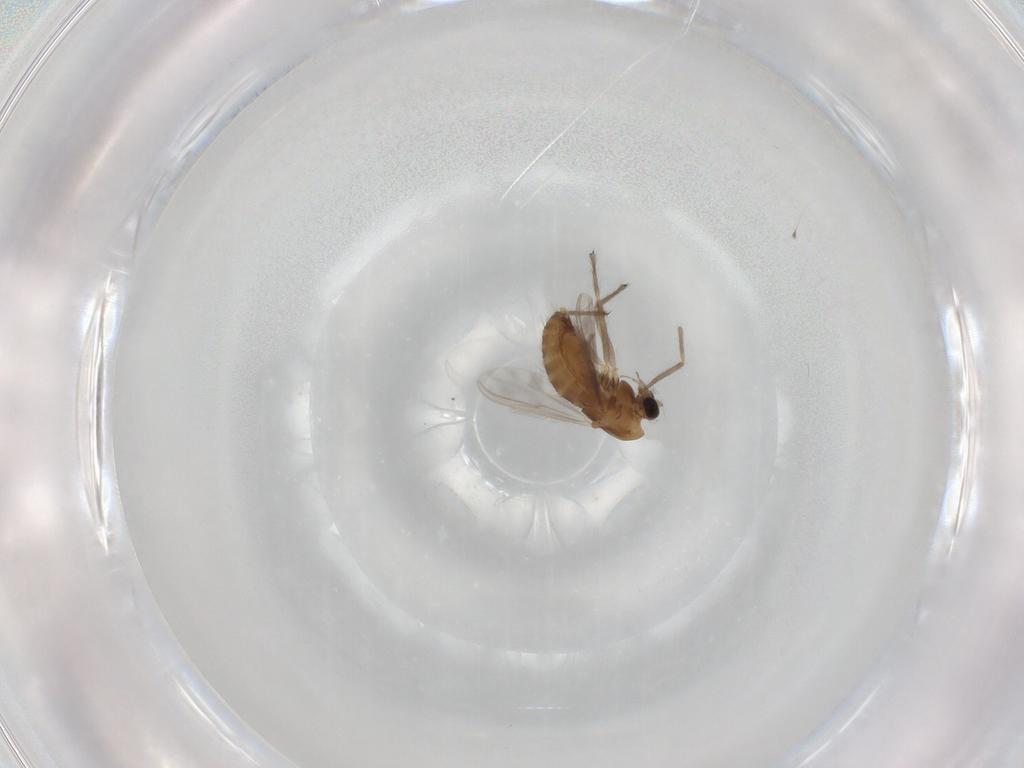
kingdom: Animalia
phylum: Arthropoda
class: Insecta
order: Diptera
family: Chironomidae
